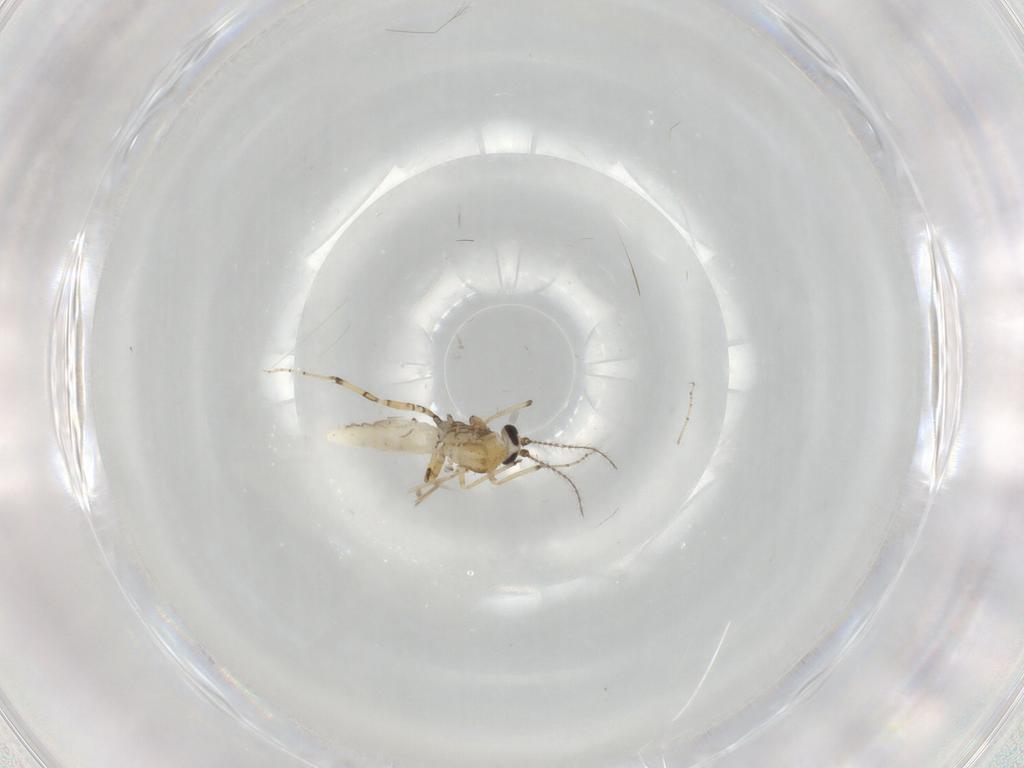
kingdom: Animalia
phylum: Arthropoda
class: Insecta
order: Diptera
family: Ceratopogonidae
